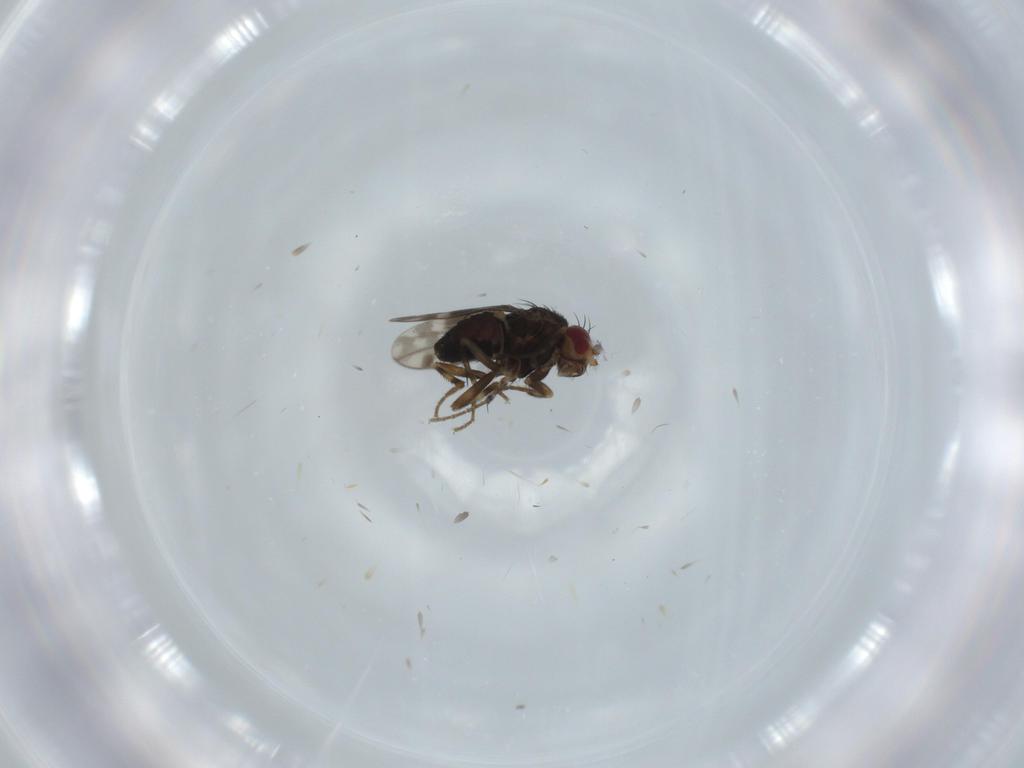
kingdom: Animalia
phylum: Arthropoda
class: Insecta
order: Diptera
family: Sphaeroceridae
